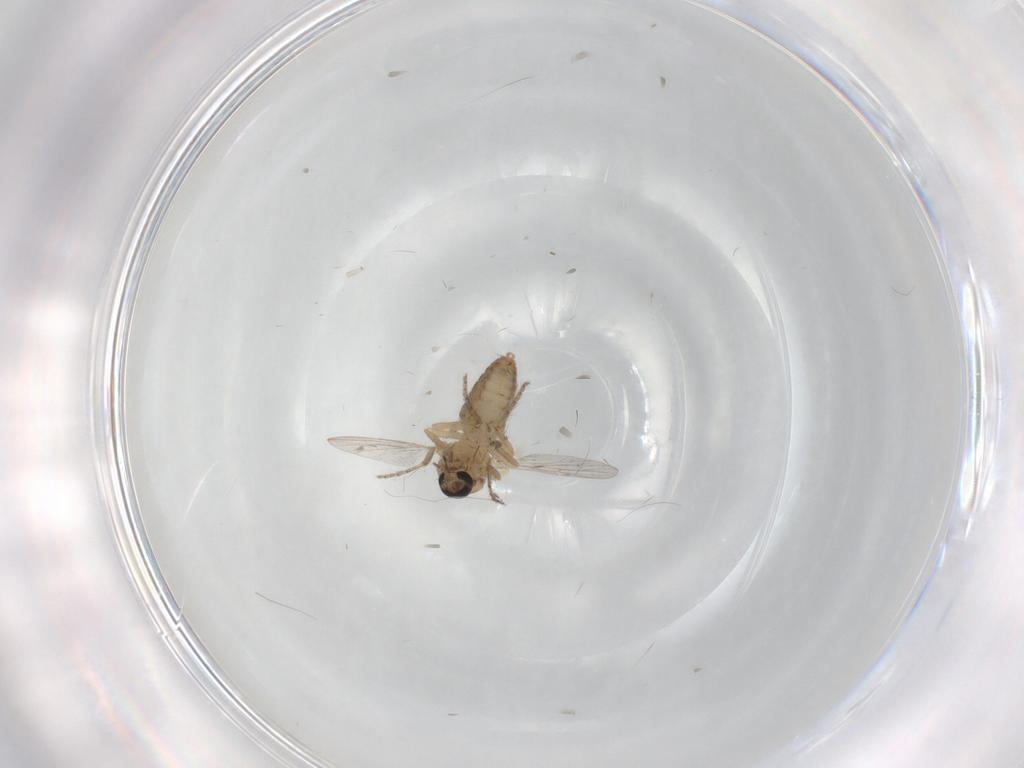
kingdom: Animalia
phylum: Arthropoda
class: Insecta
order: Diptera
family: Ceratopogonidae
